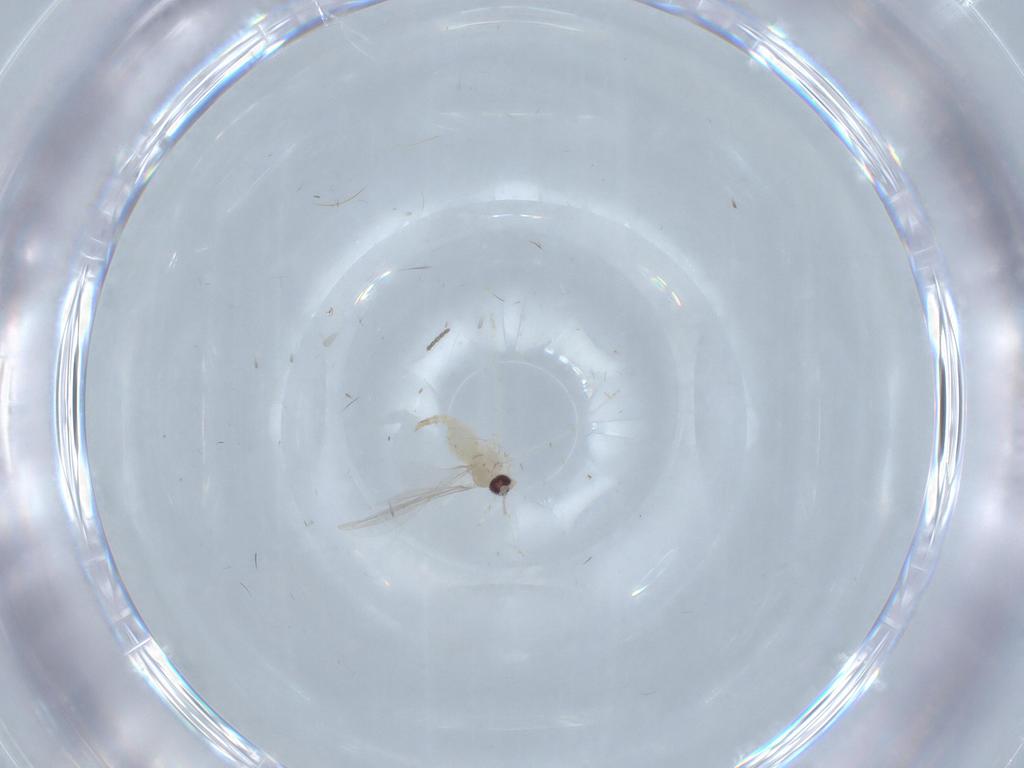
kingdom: Animalia
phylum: Arthropoda
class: Insecta
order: Diptera
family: Cecidomyiidae
